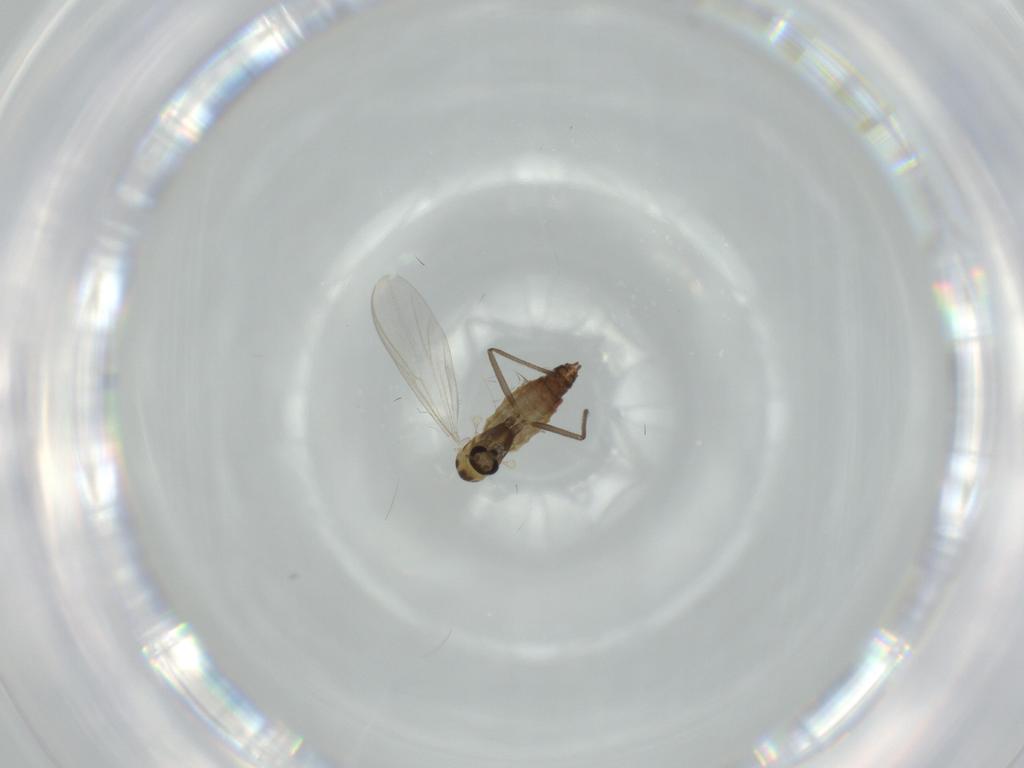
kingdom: Animalia
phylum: Arthropoda
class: Insecta
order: Diptera
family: Chironomidae
